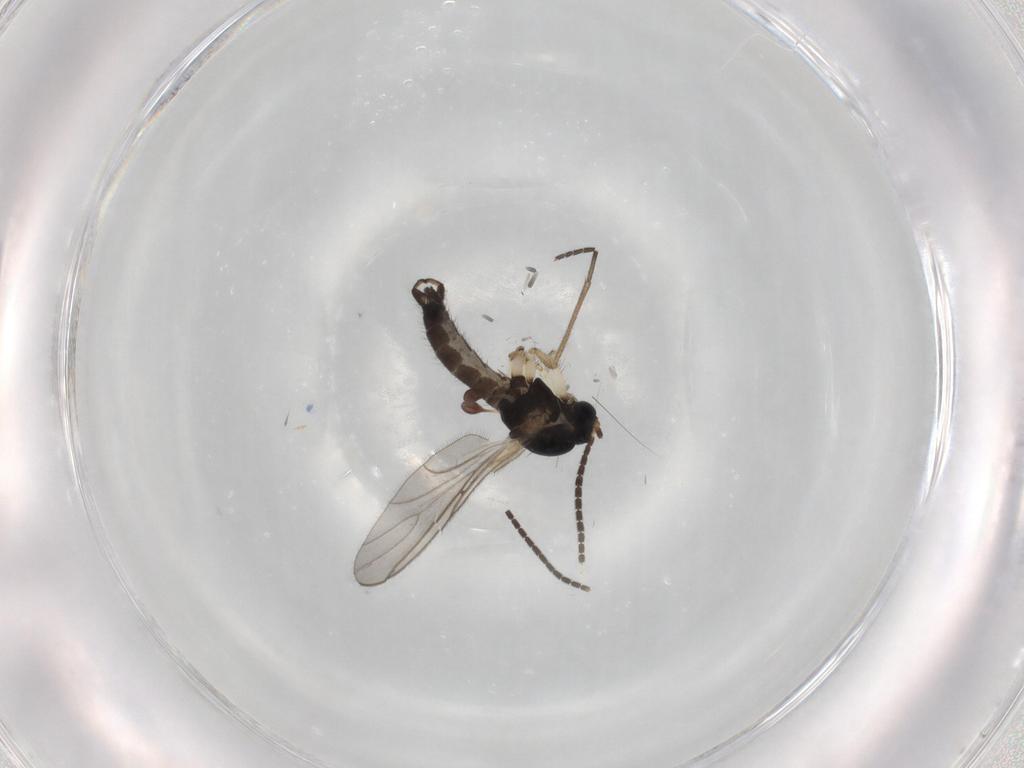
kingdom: Animalia
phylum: Arthropoda
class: Insecta
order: Diptera
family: Sciaridae
